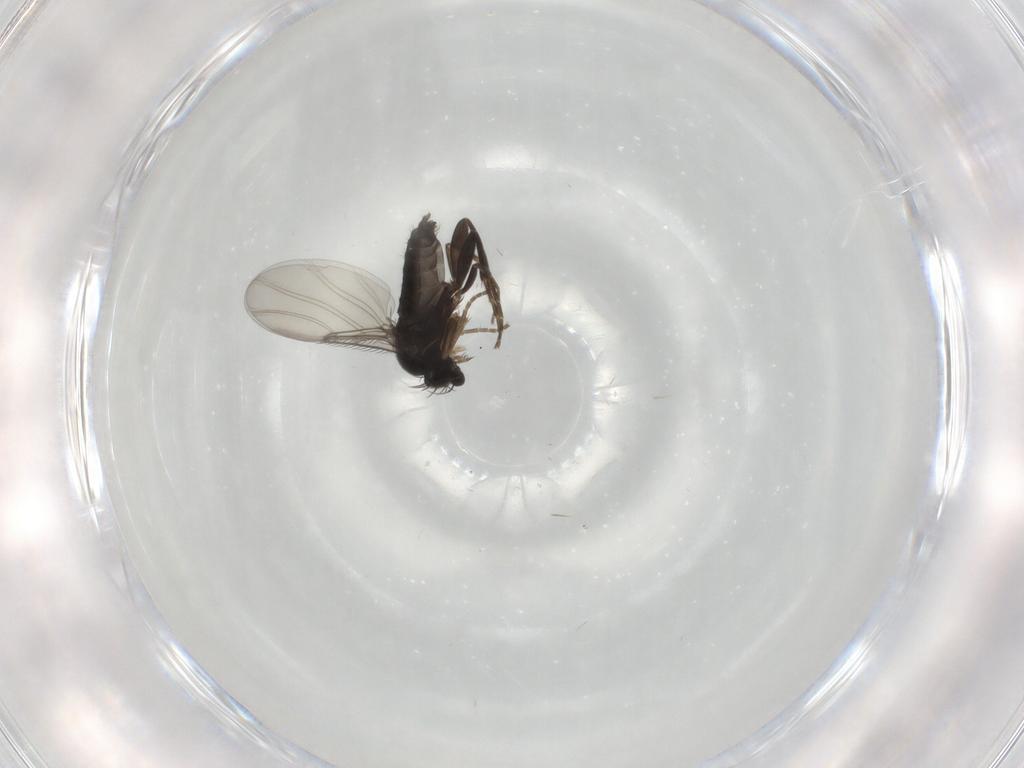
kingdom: Animalia
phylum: Arthropoda
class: Insecta
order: Diptera
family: Phoridae
